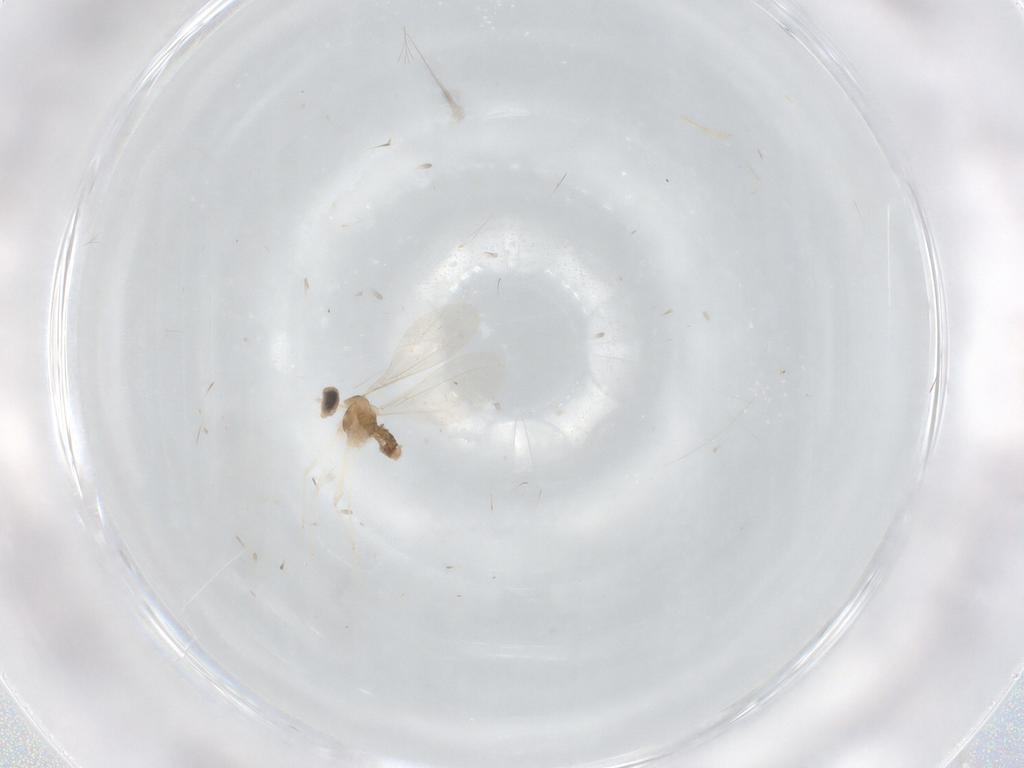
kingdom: Animalia
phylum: Arthropoda
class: Insecta
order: Diptera
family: Cecidomyiidae
